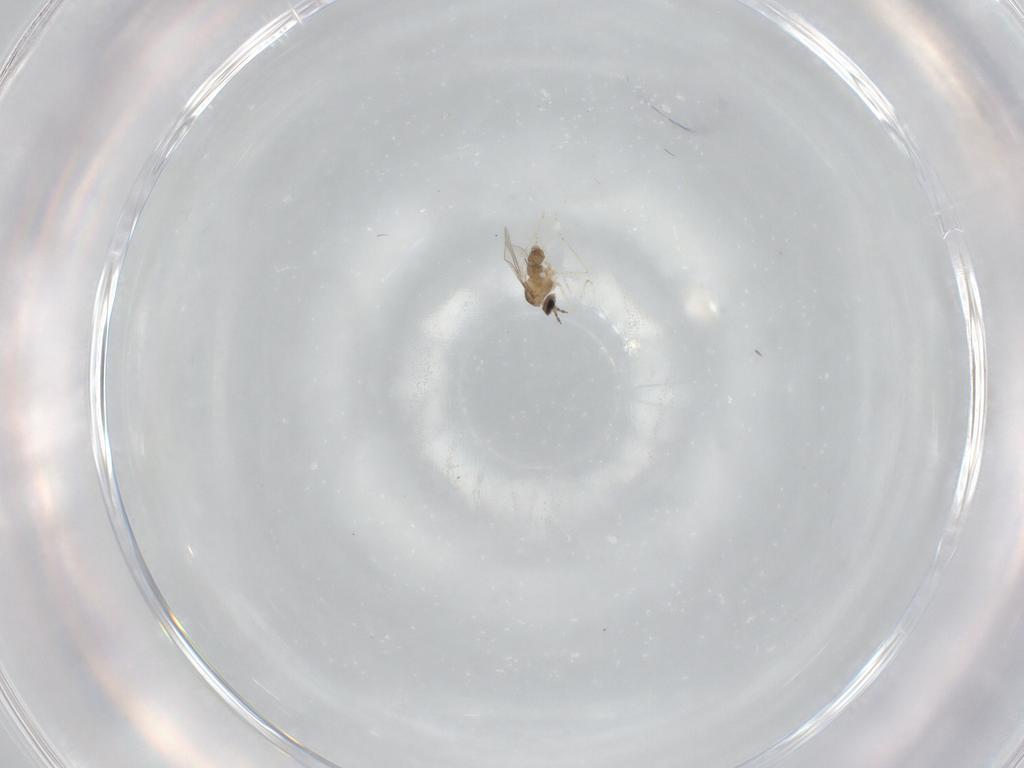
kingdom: Animalia
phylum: Arthropoda
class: Insecta
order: Diptera
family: Cecidomyiidae
